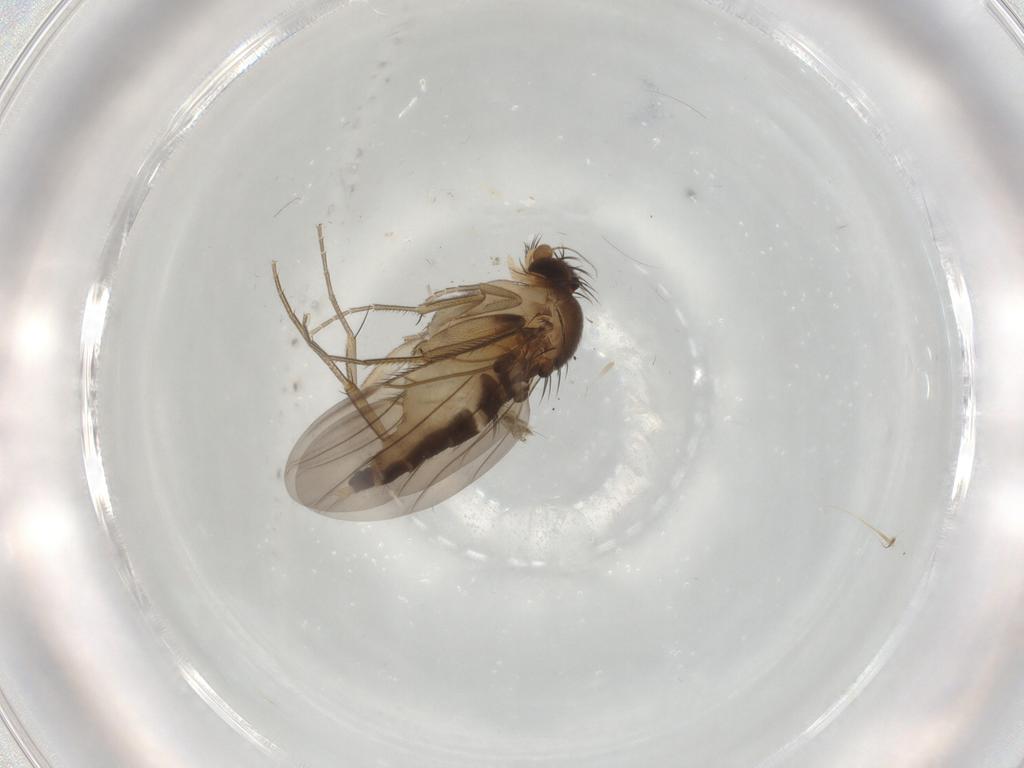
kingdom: Animalia
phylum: Arthropoda
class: Insecta
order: Diptera
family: Phoridae
